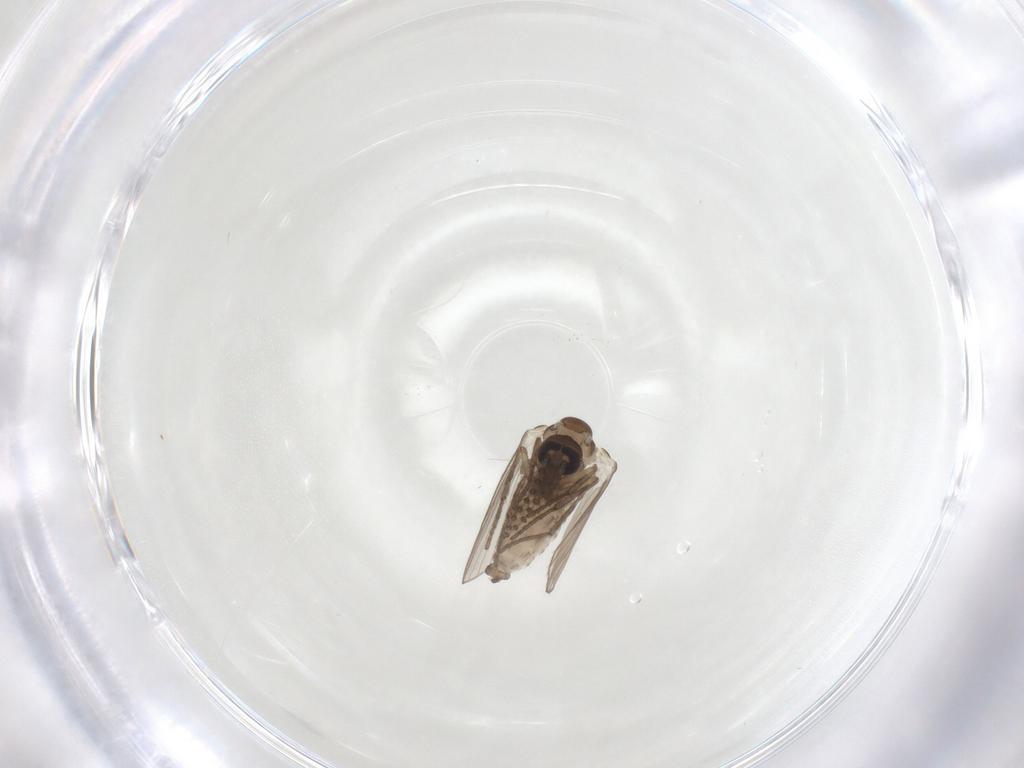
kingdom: Animalia
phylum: Arthropoda
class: Insecta
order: Diptera
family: Psychodidae
